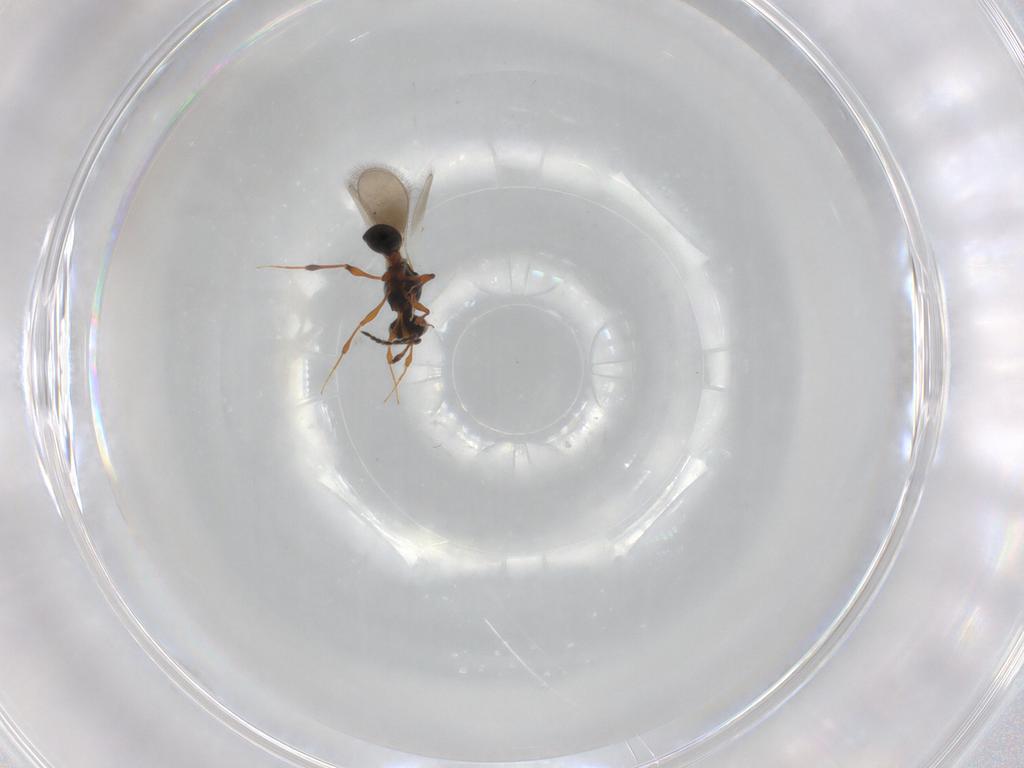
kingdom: Animalia
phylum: Arthropoda
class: Insecta
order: Hymenoptera
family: Platygastridae
